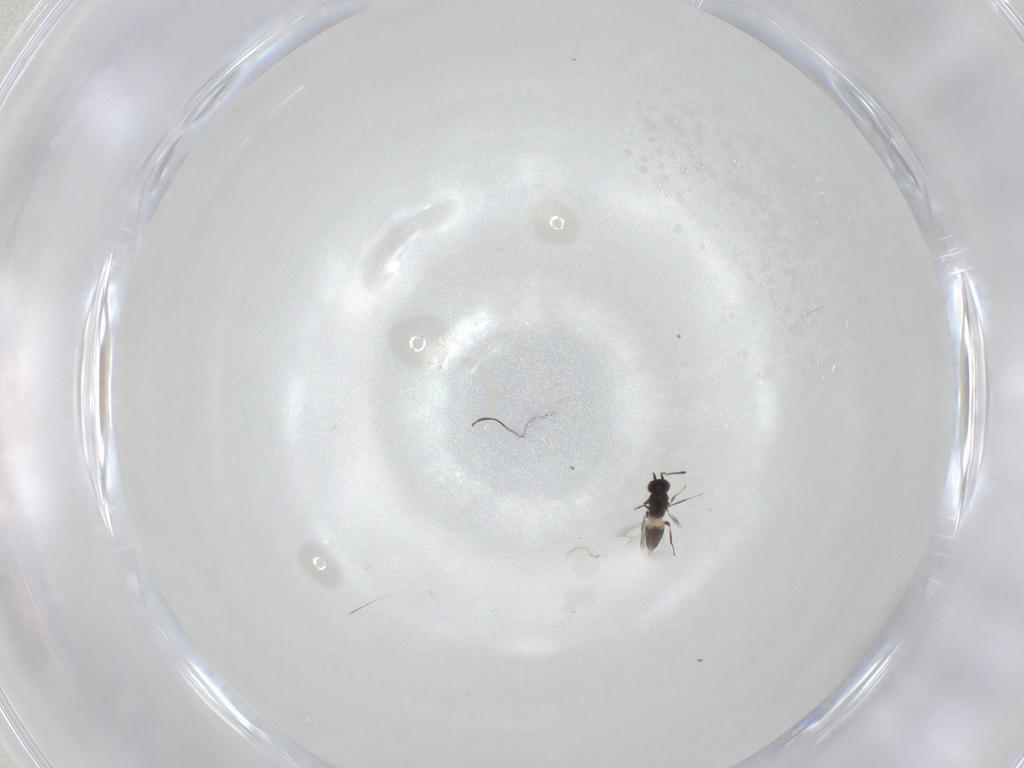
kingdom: Animalia
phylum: Arthropoda
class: Insecta
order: Hymenoptera
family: Mymaridae
